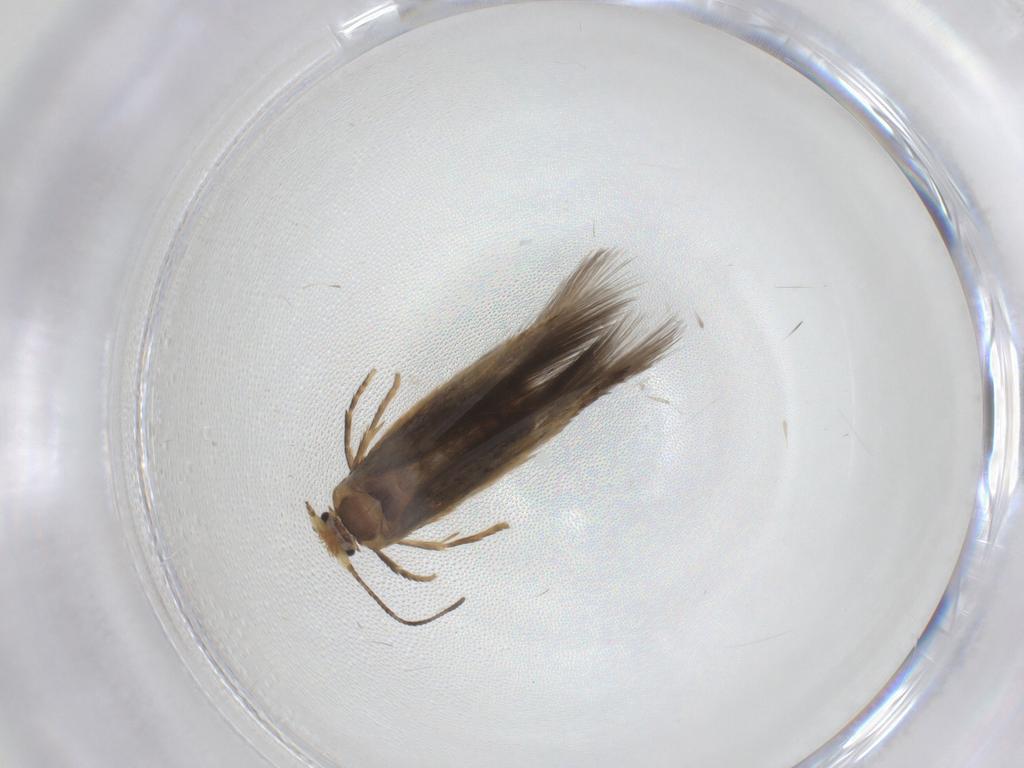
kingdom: Animalia
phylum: Arthropoda
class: Insecta
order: Lepidoptera
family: Nepticulidae
